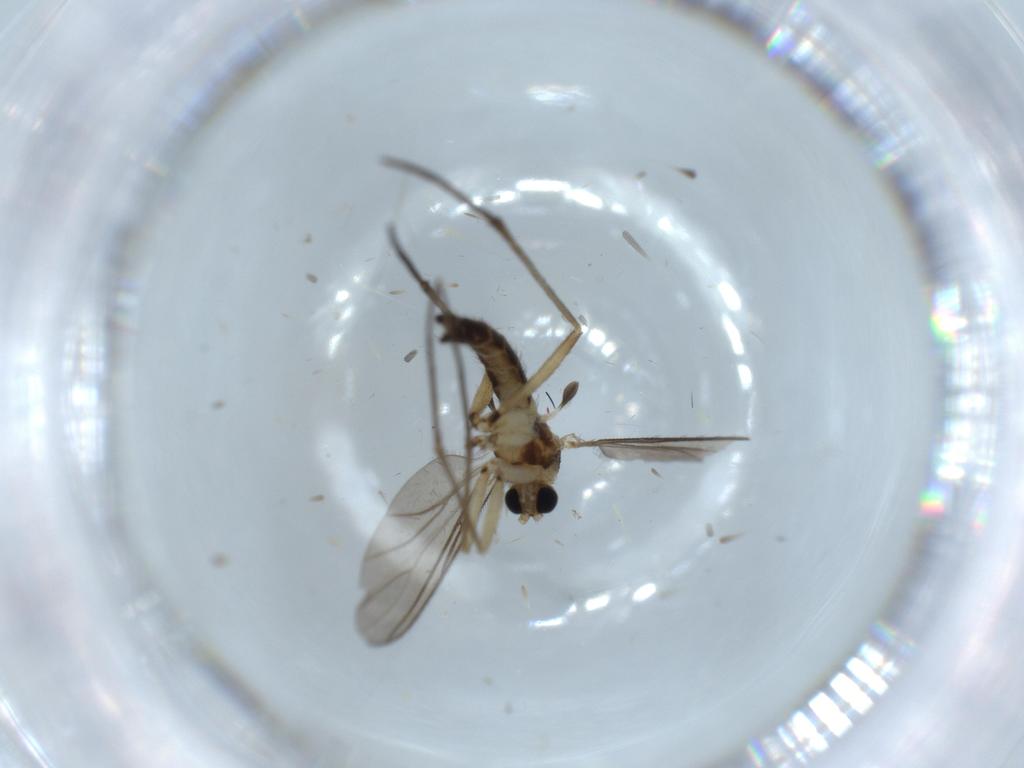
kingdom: Animalia
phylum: Arthropoda
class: Insecta
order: Diptera
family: Sciaridae
